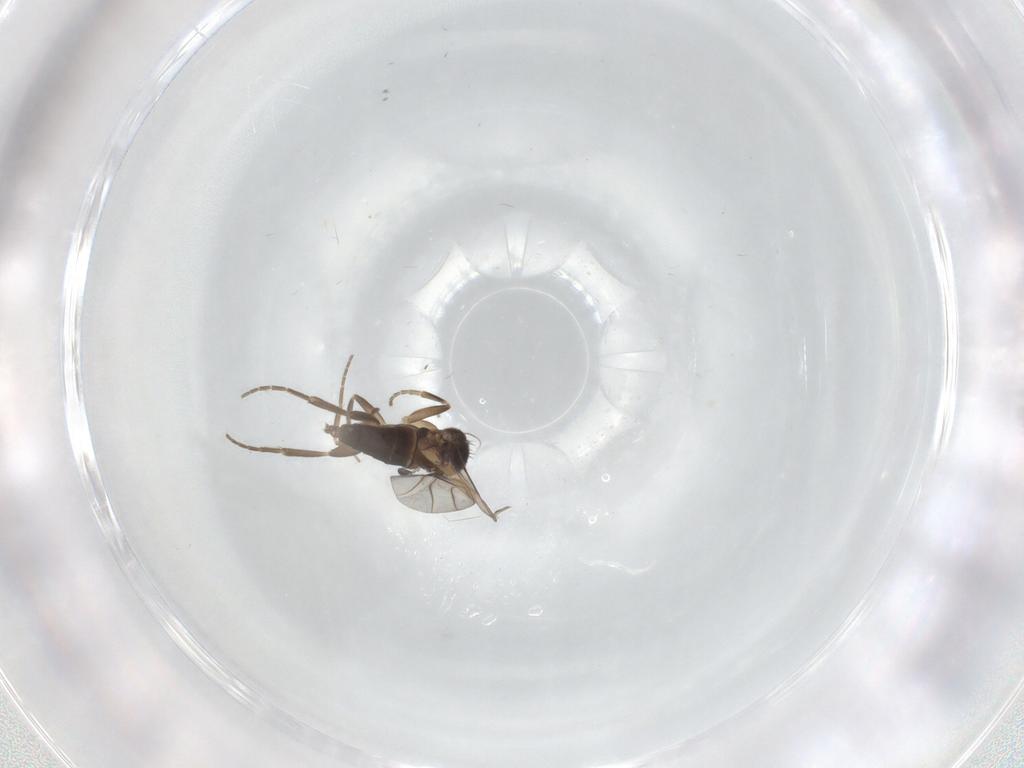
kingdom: Animalia
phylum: Arthropoda
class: Insecta
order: Diptera
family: Phoridae
